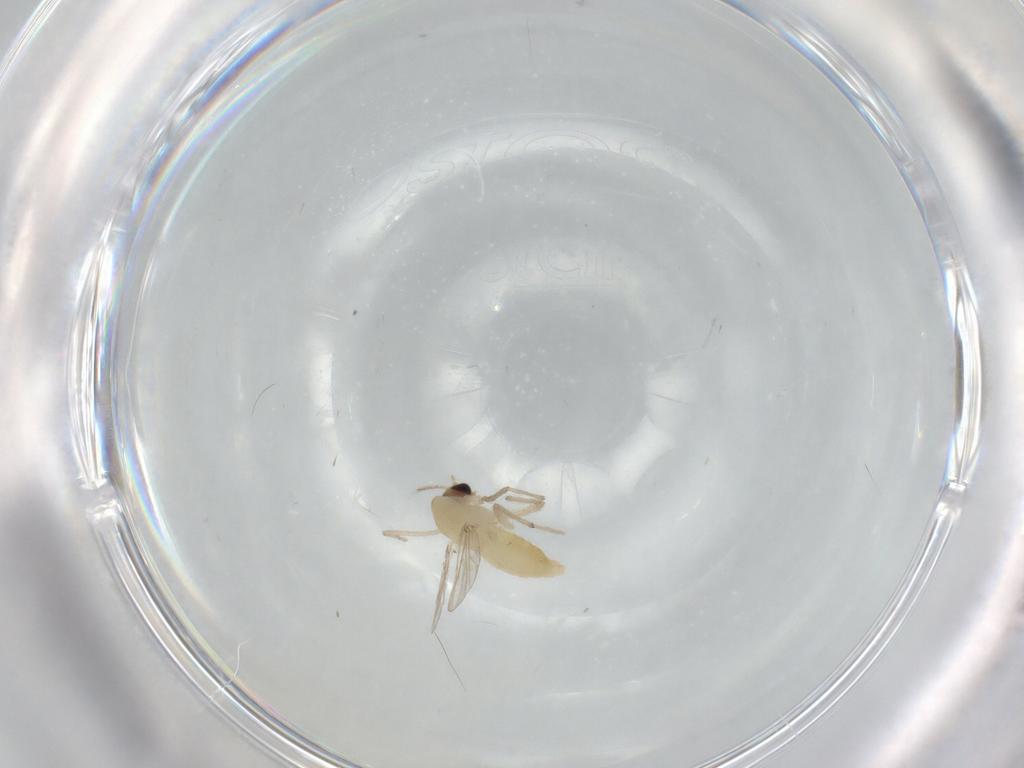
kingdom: Animalia
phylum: Arthropoda
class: Insecta
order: Diptera
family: Chironomidae
